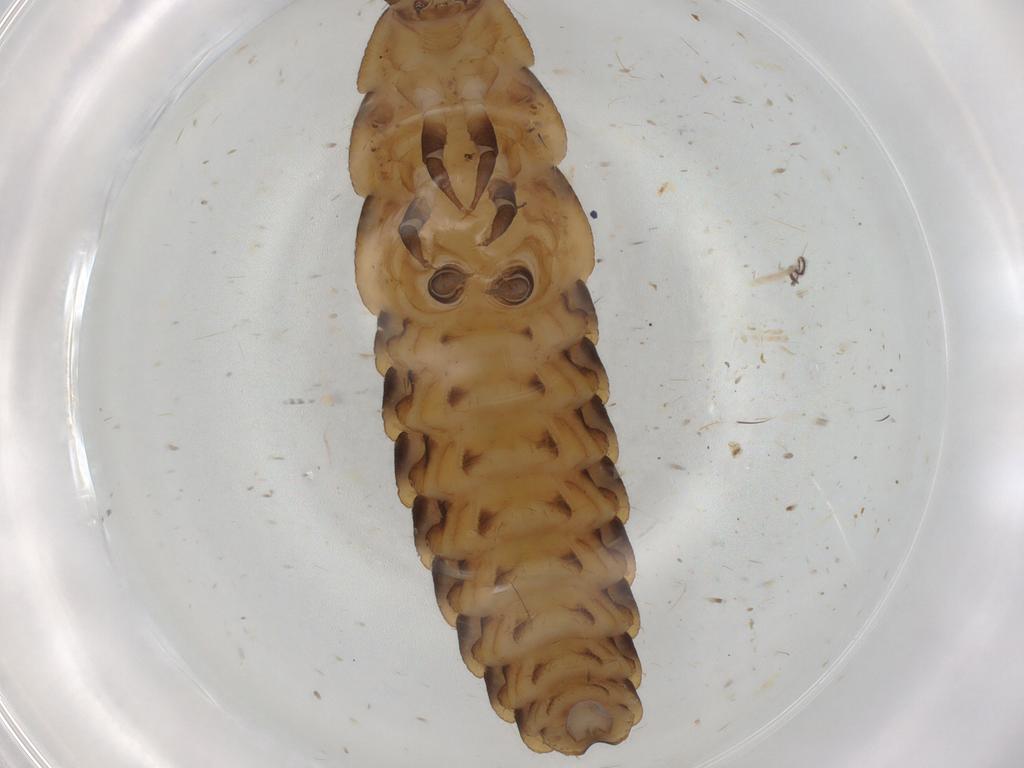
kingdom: Animalia
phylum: Arthropoda
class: Insecta
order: Coleoptera
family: Lycidae
